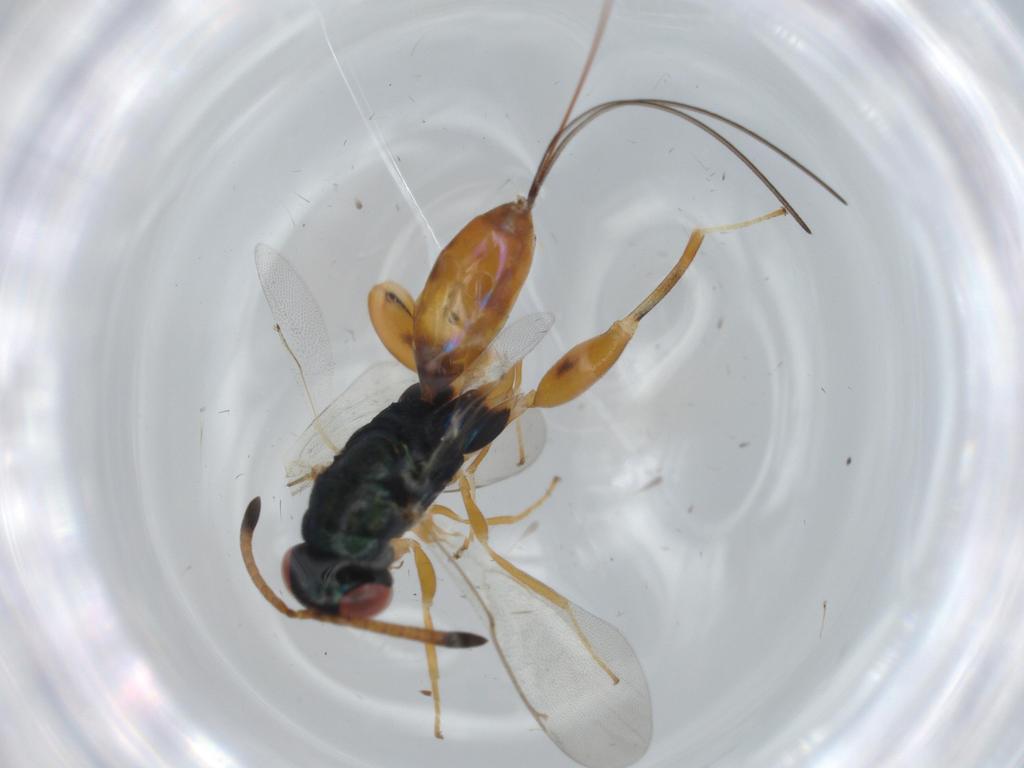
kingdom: Animalia
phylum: Arthropoda
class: Insecta
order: Hymenoptera
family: Torymidae
